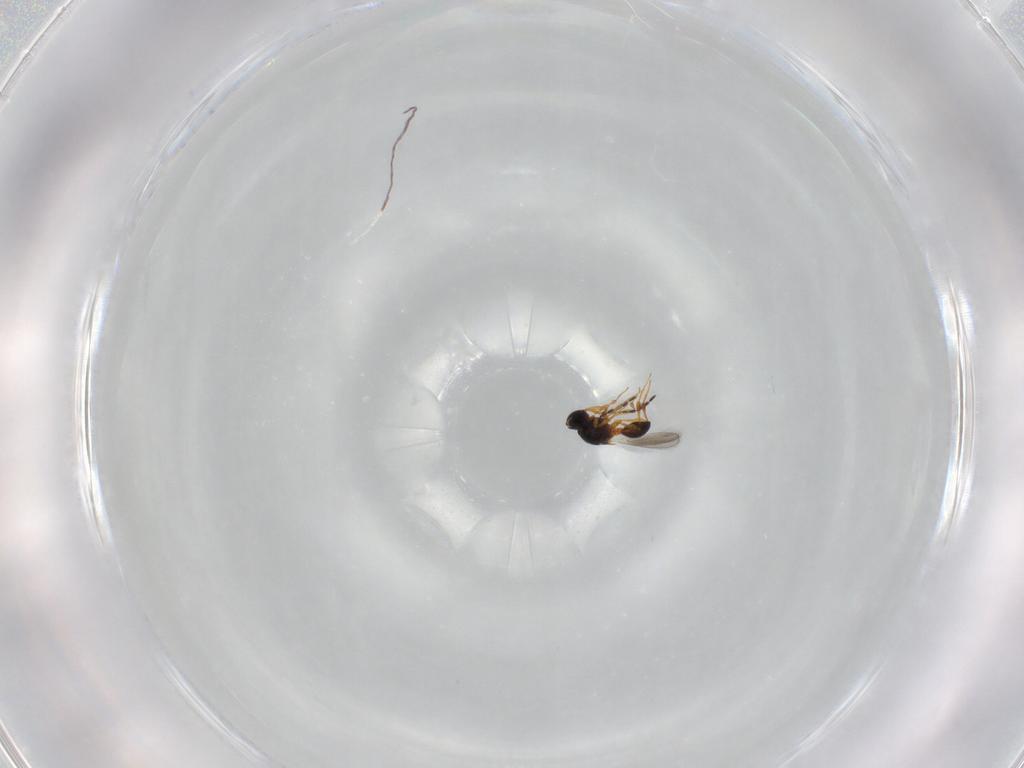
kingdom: Animalia
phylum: Arthropoda
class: Insecta
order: Hymenoptera
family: Platygastridae
